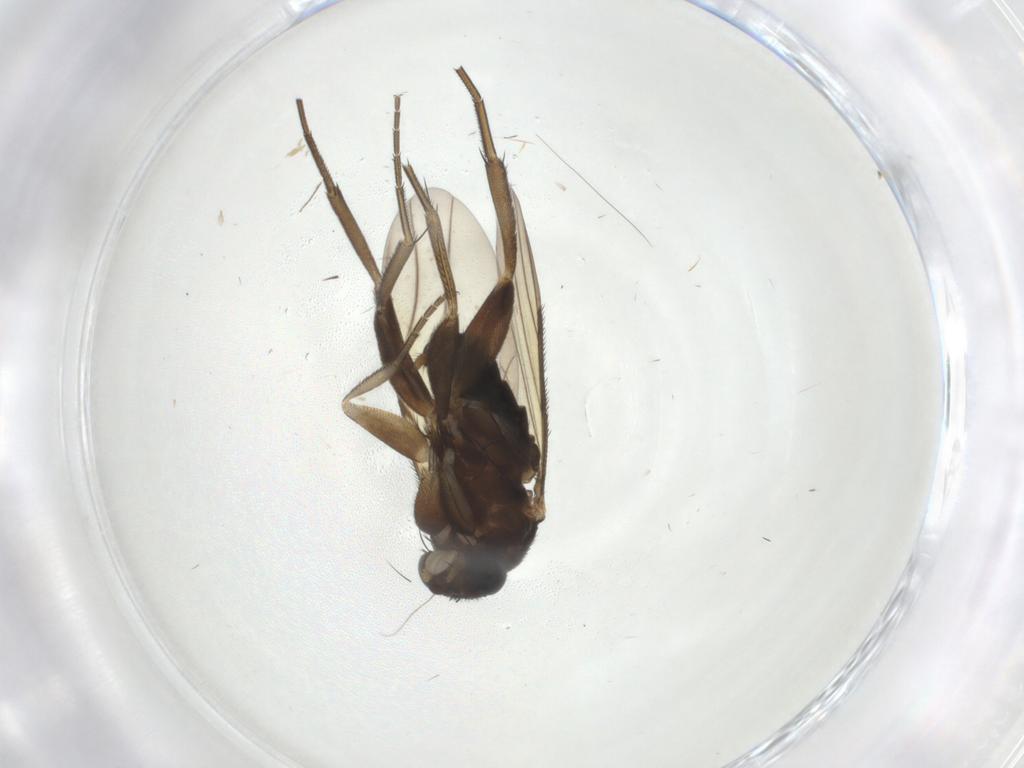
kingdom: Animalia
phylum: Arthropoda
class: Insecta
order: Diptera
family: Phoridae
